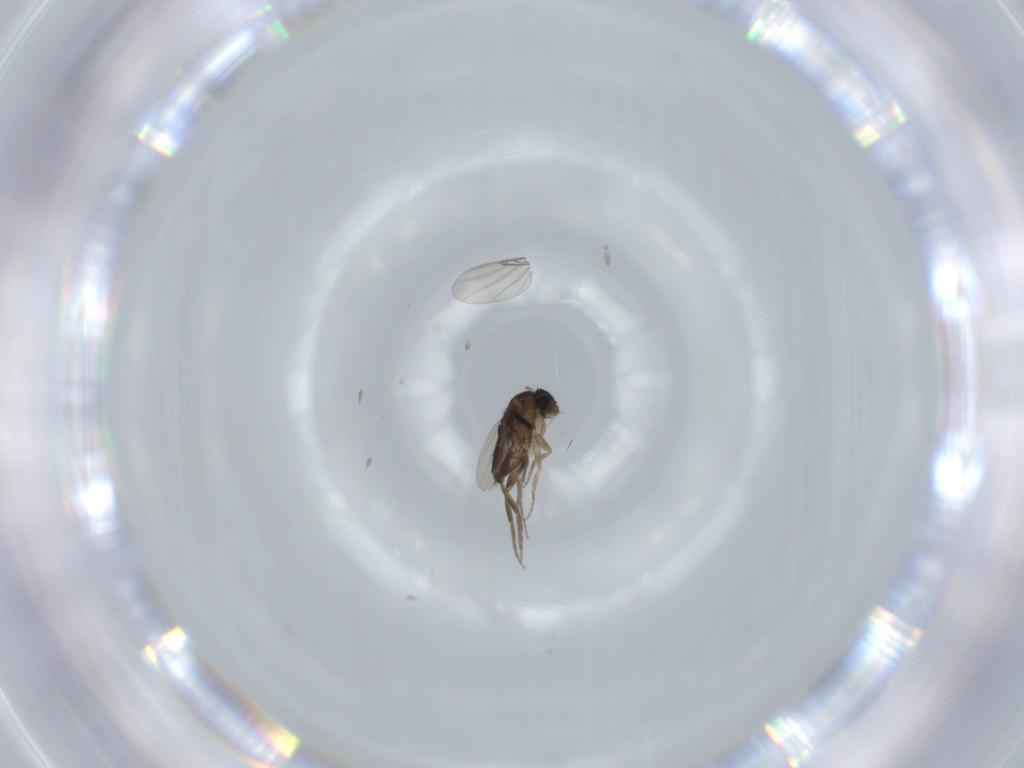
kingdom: Animalia
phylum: Arthropoda
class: Insecta
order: Diptera
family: Phoridae
